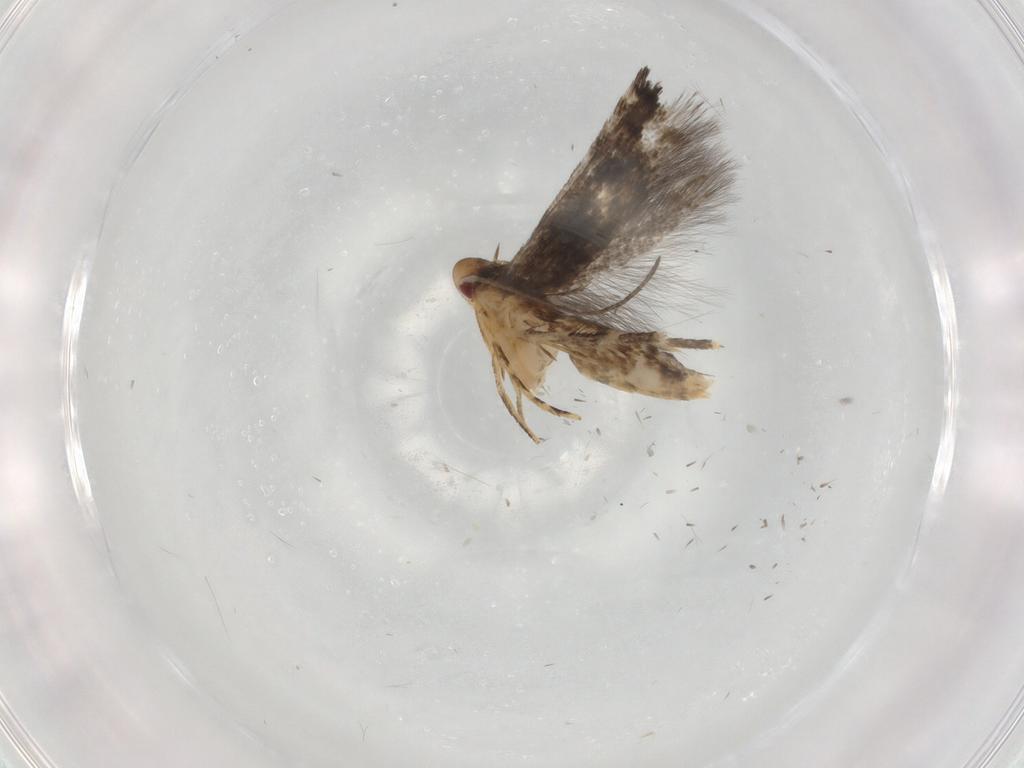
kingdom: Animalia
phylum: Arthropoda
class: Insecta
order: Lepidoptera
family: Momphidae
